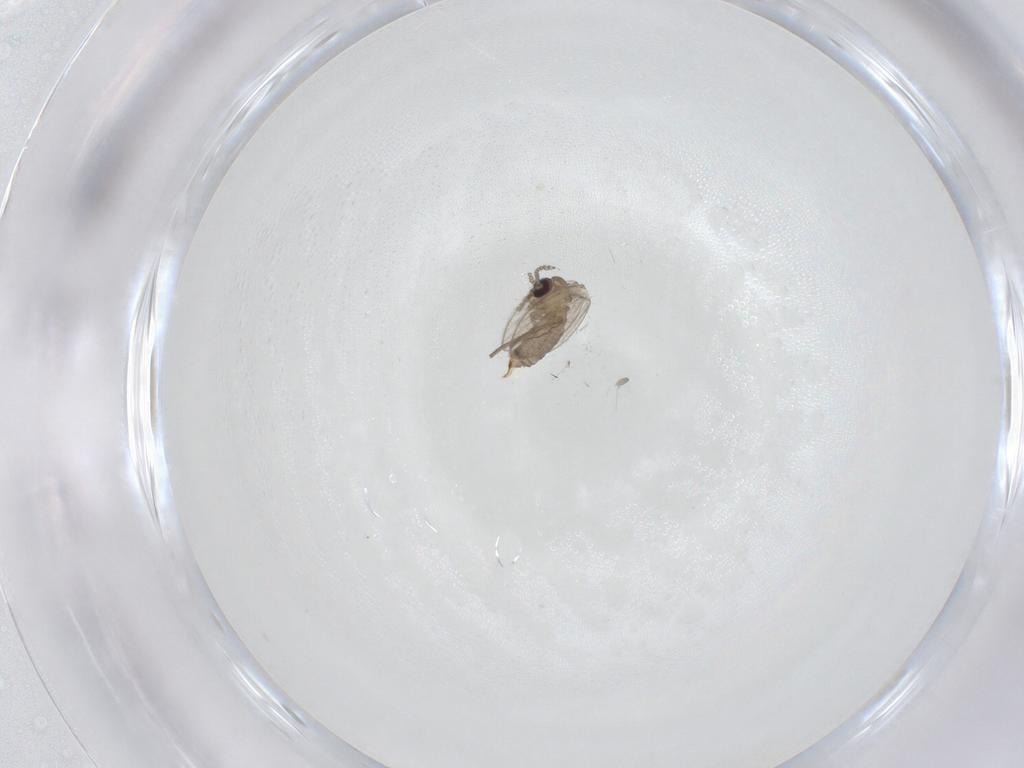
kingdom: Animalia
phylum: Arthropoda
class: Insecta
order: Diptera
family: Psychodidae
